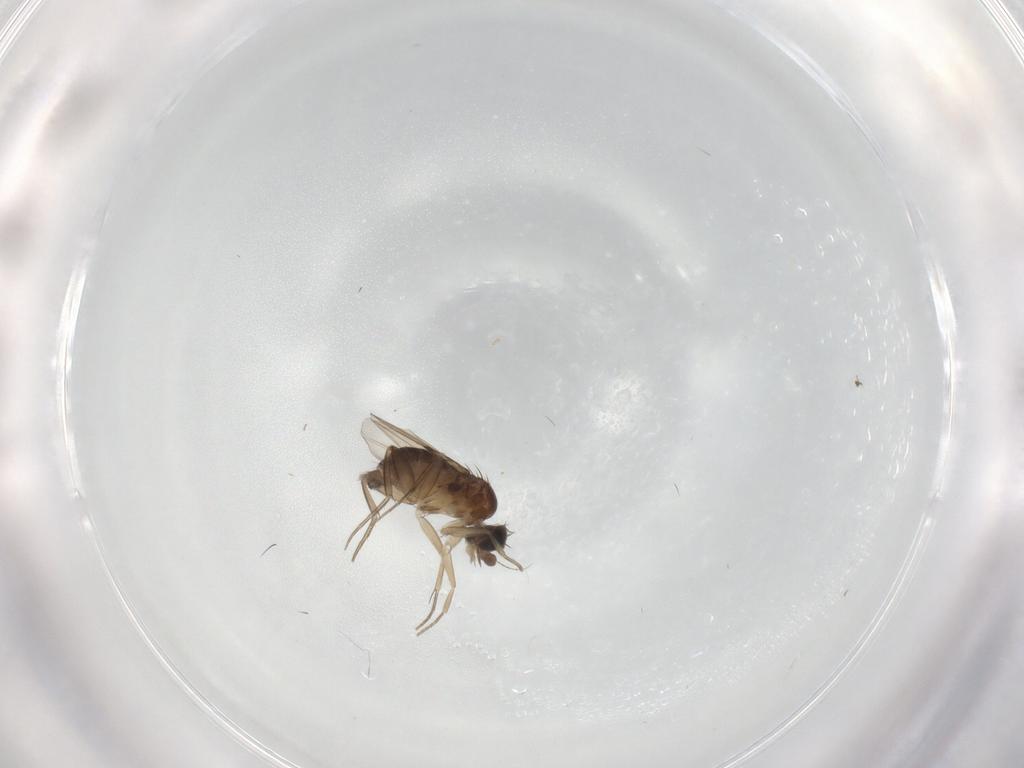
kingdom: Animalia
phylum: Arthropoda
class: Insecta
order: Diptera
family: Phoridae
